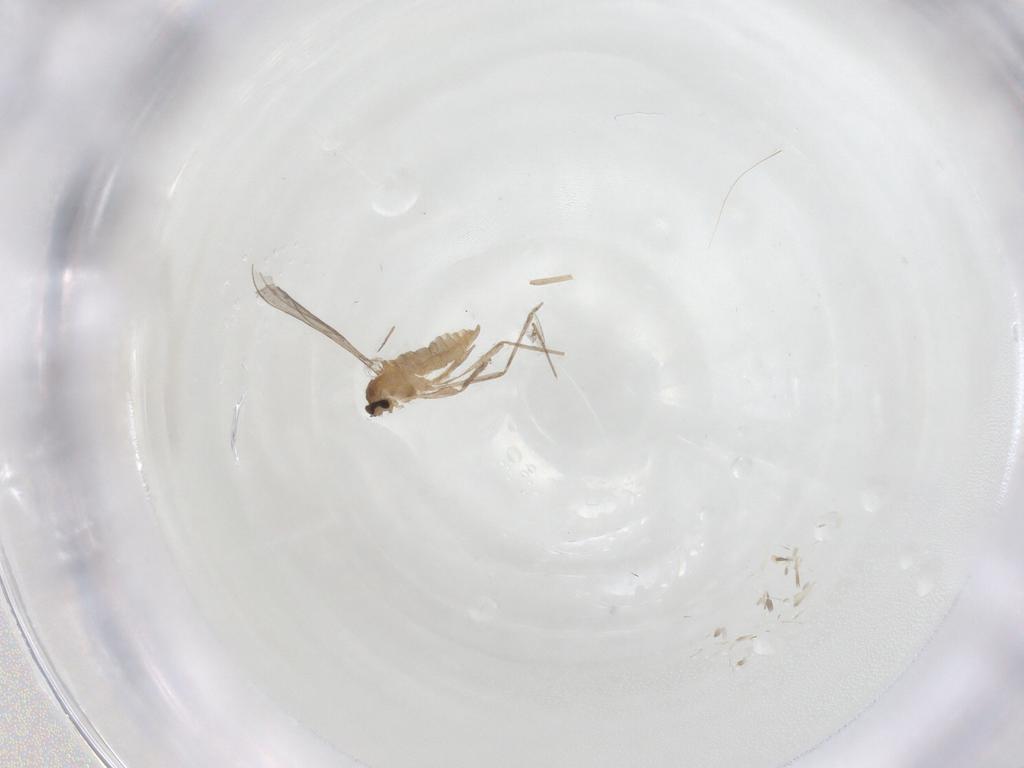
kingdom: Animalia
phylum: Arthropoda
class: Insecta
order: Diptera
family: Cecidomyiidae
